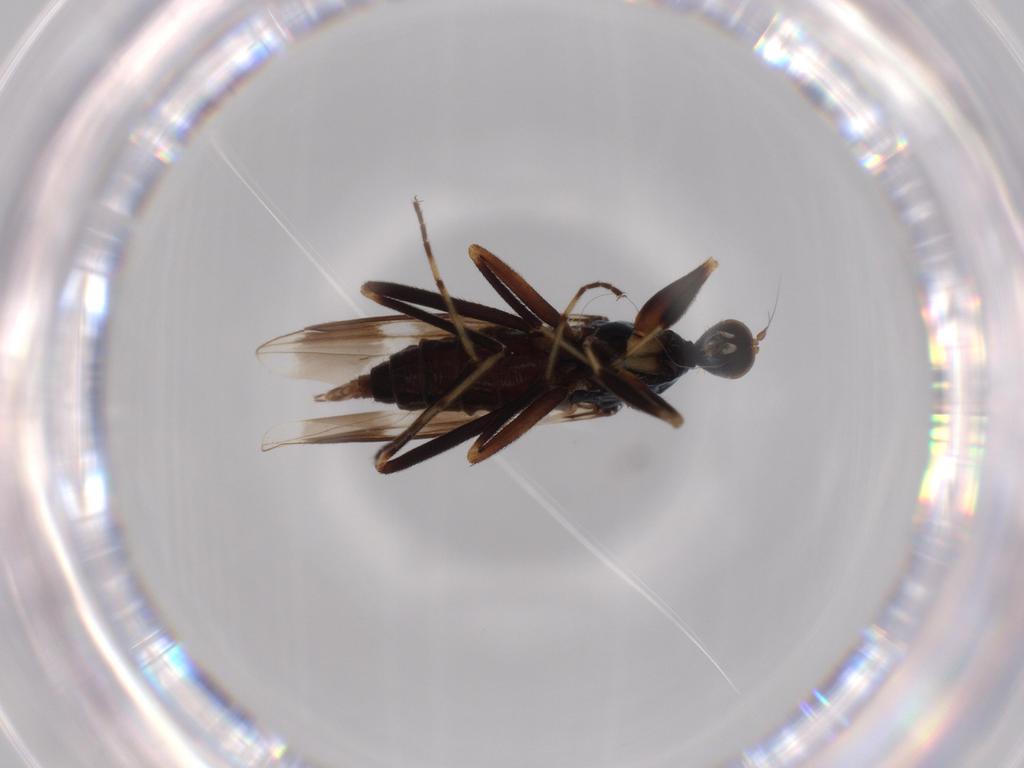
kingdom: Animalia
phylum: Arthropoda
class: Insecta
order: Diptera
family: Hybotidae
